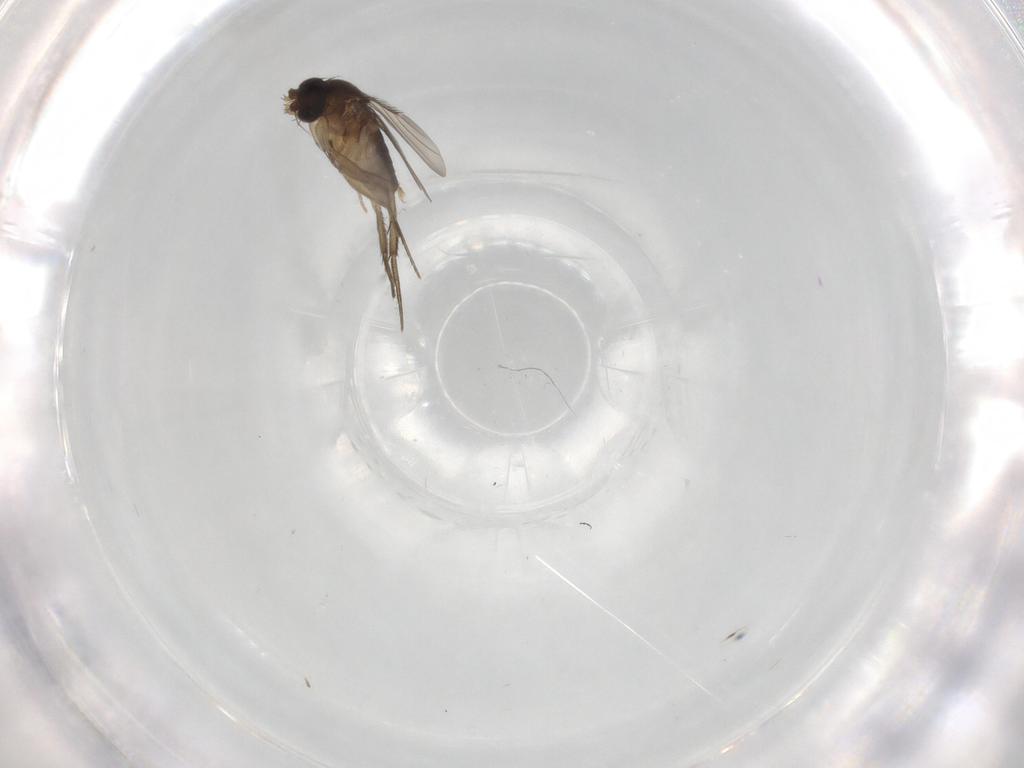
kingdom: Animalia
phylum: Arthropoda
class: Insecta
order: Diptera
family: Phoridae
